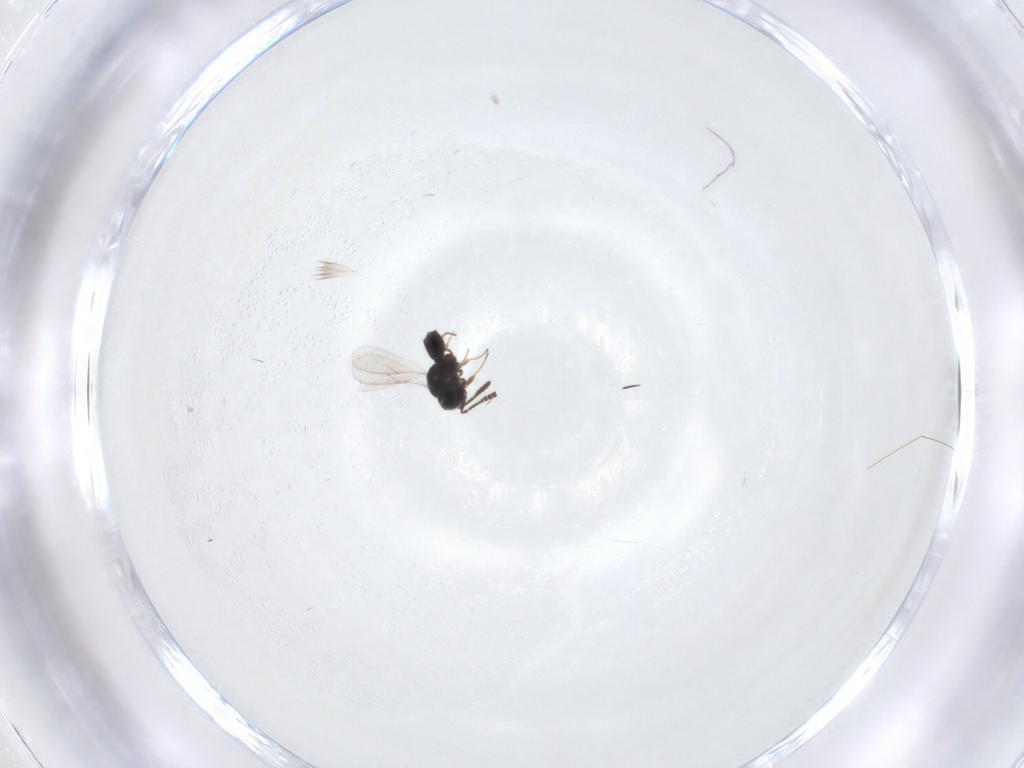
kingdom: Animalia
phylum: Arthropoda
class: Insecta
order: Hymenoptera
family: Scelionidae
